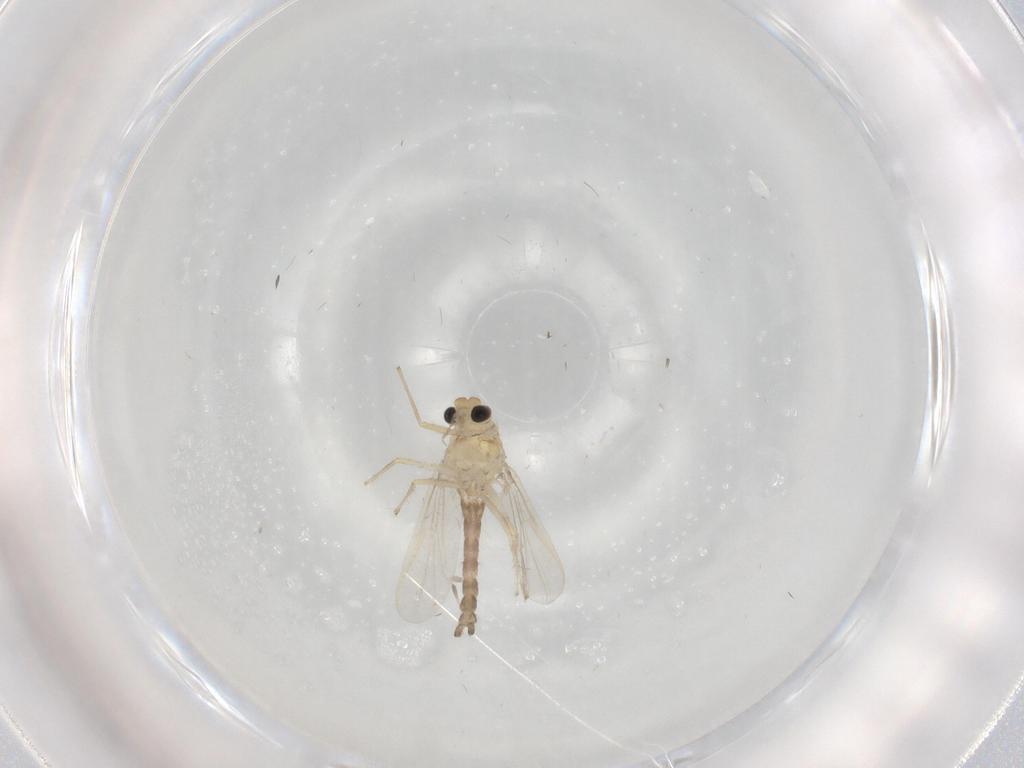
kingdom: Animalia
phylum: Arthropoda
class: Insecta
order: Diptera
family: Chironomidae
